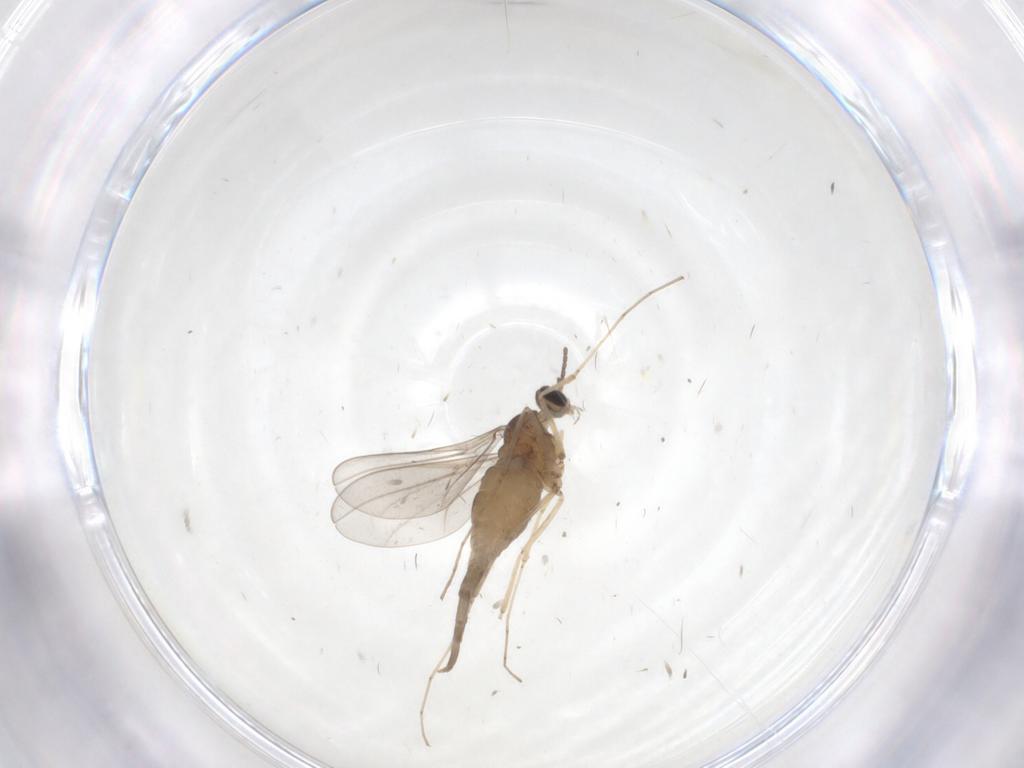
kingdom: Animalia
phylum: Arthropoda
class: Insecta
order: Diptera
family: Cecidomyiidae
